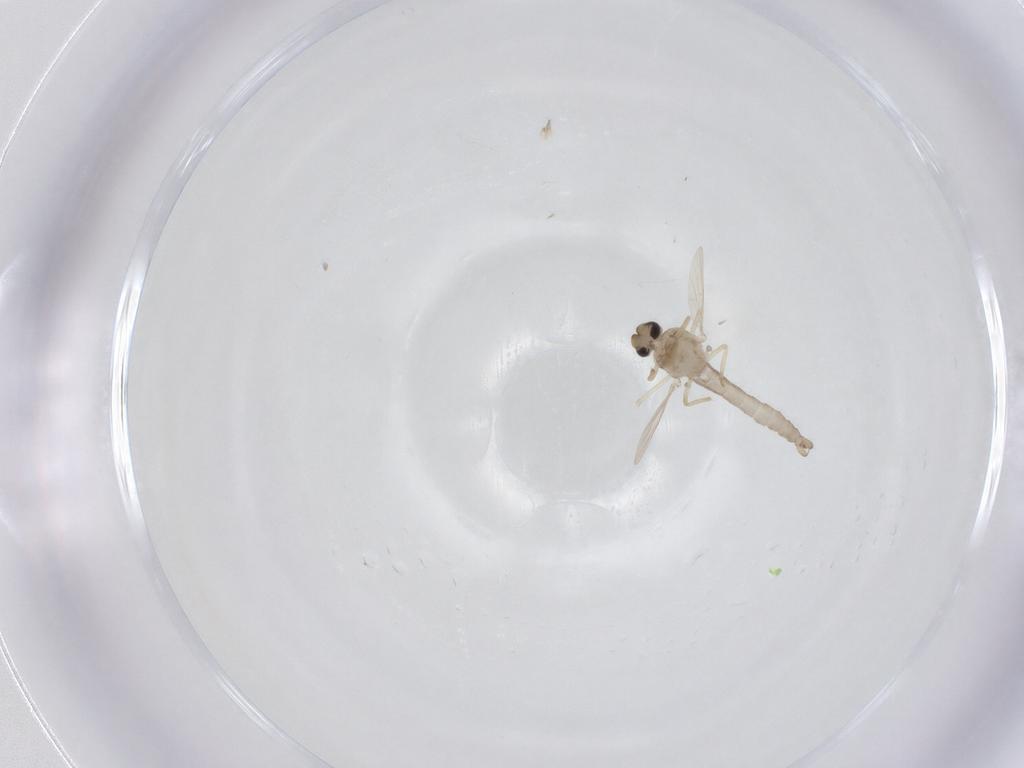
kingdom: Animalia
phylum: Arthropoda
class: Insecta
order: Diptera
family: Ceratopogonidae
